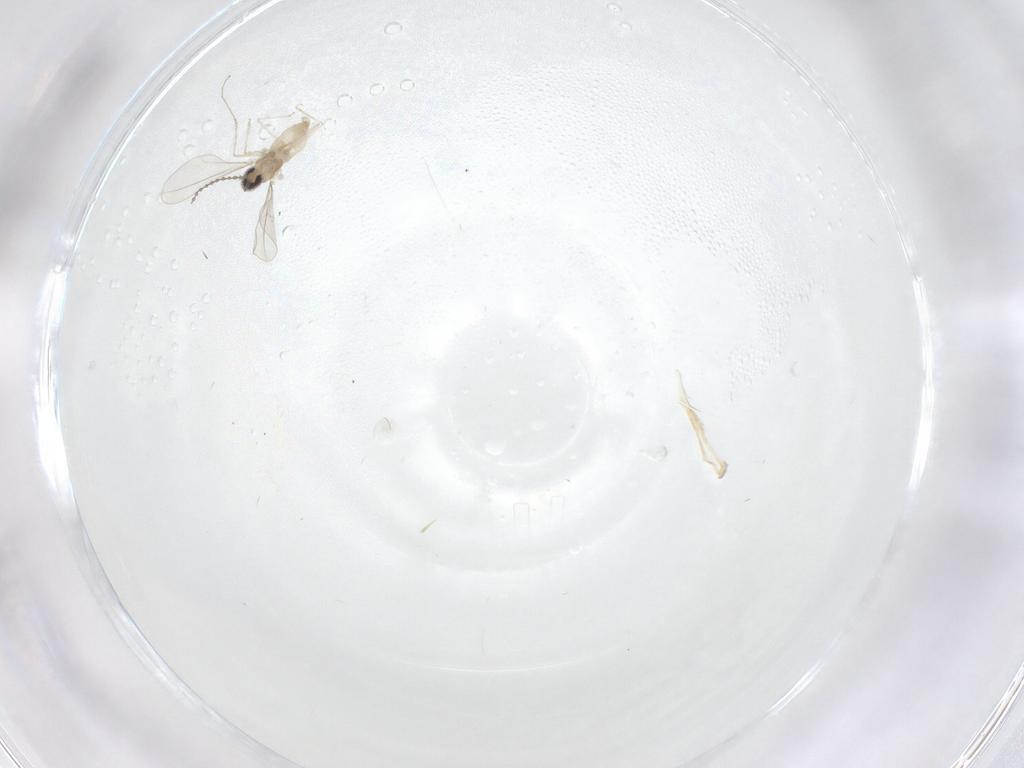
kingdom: Animalia
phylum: Arthropoda
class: Insecta
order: Diptera
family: Cecidomyiidae
